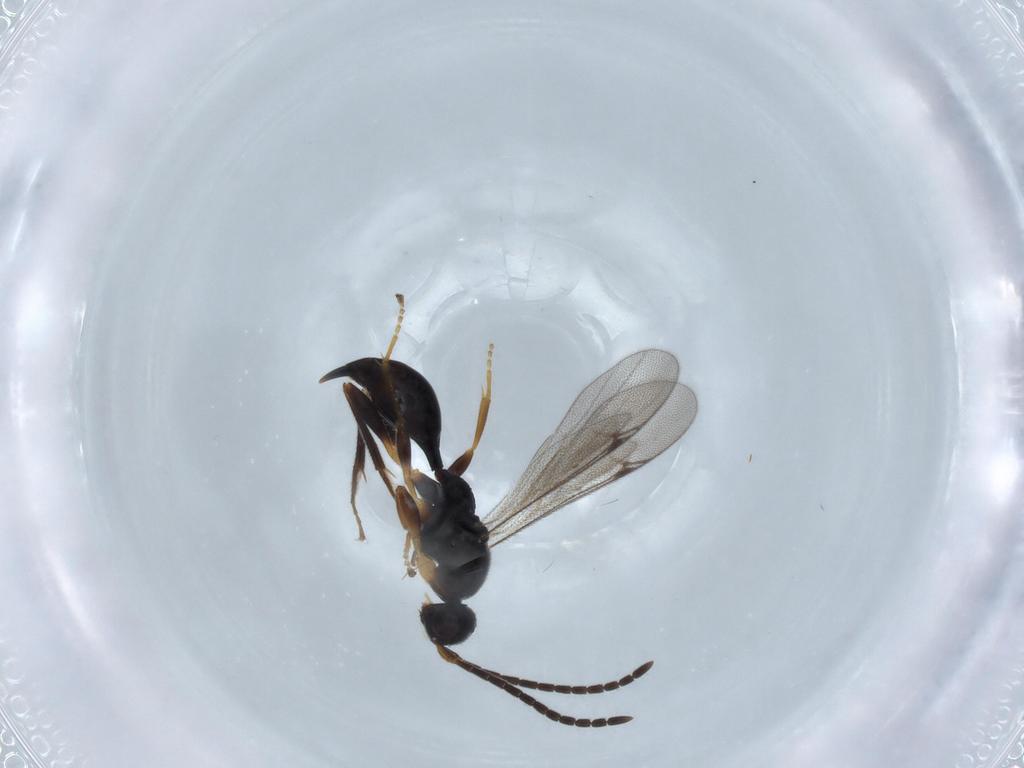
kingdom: Animalia
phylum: Arthropoda
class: Insecta
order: Hymenoptera
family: Proctotrupidae
